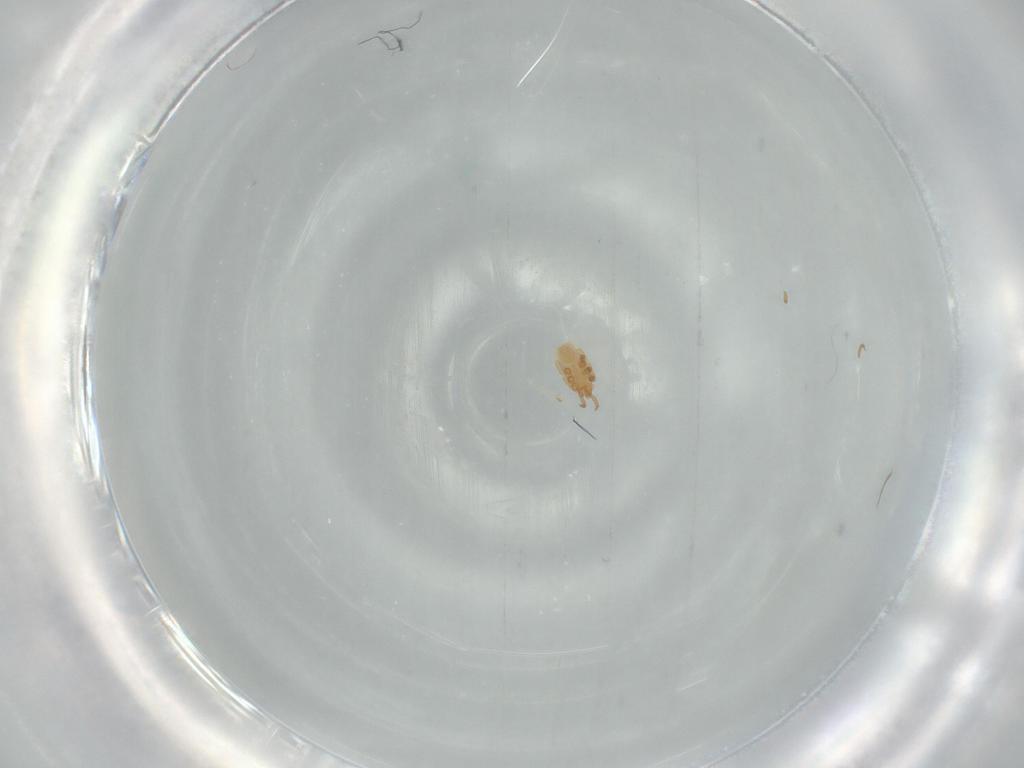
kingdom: Animalia
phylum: Arthropoda
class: Arachnida
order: Mesostigmata
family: Dinychidae
